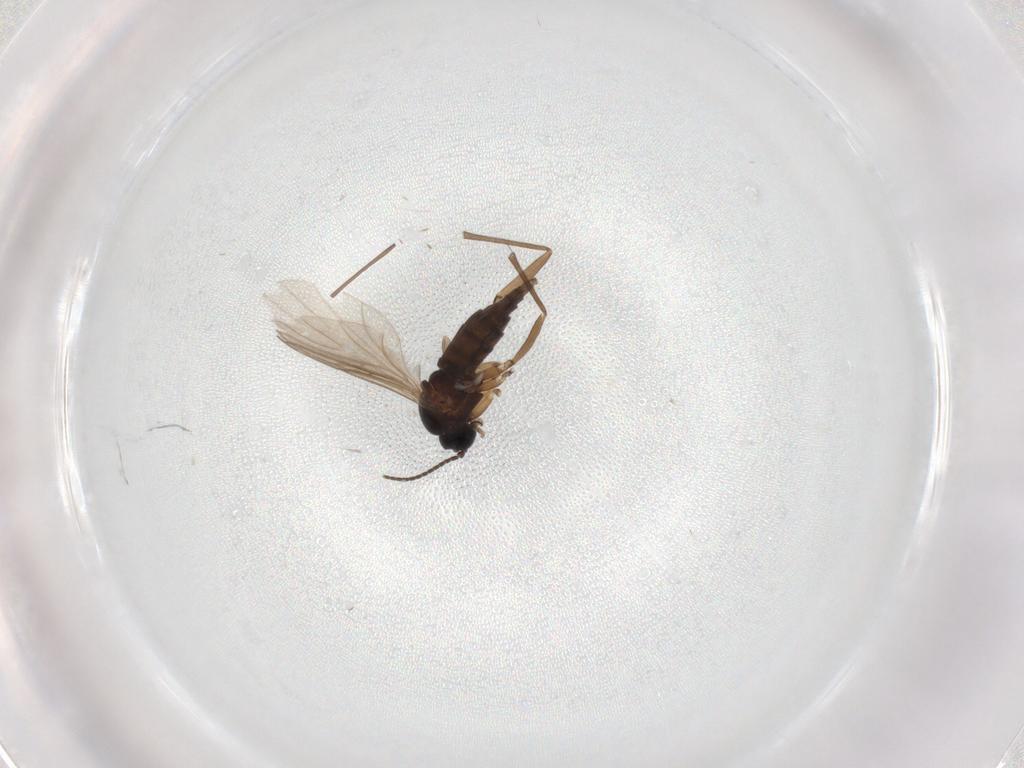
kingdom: Animalia
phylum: Arthropoda
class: Insecta
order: Diptera
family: Sciaridae
